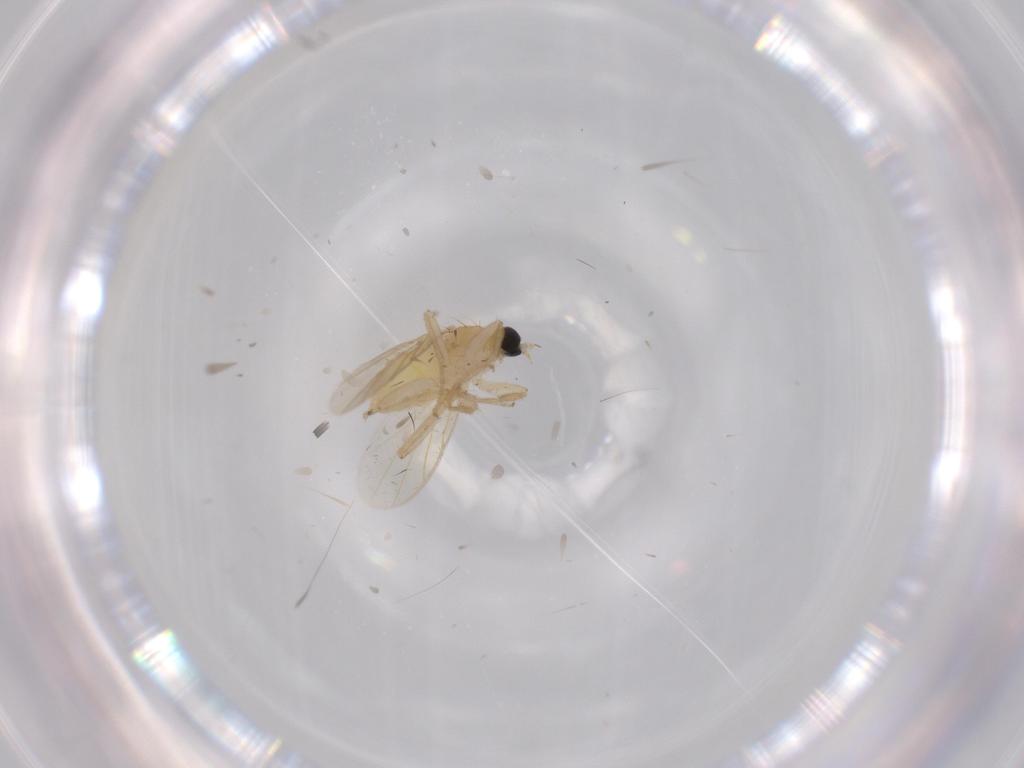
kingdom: Animalia
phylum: Arthropoda
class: Insecta
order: Diptera
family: Hybotidae
